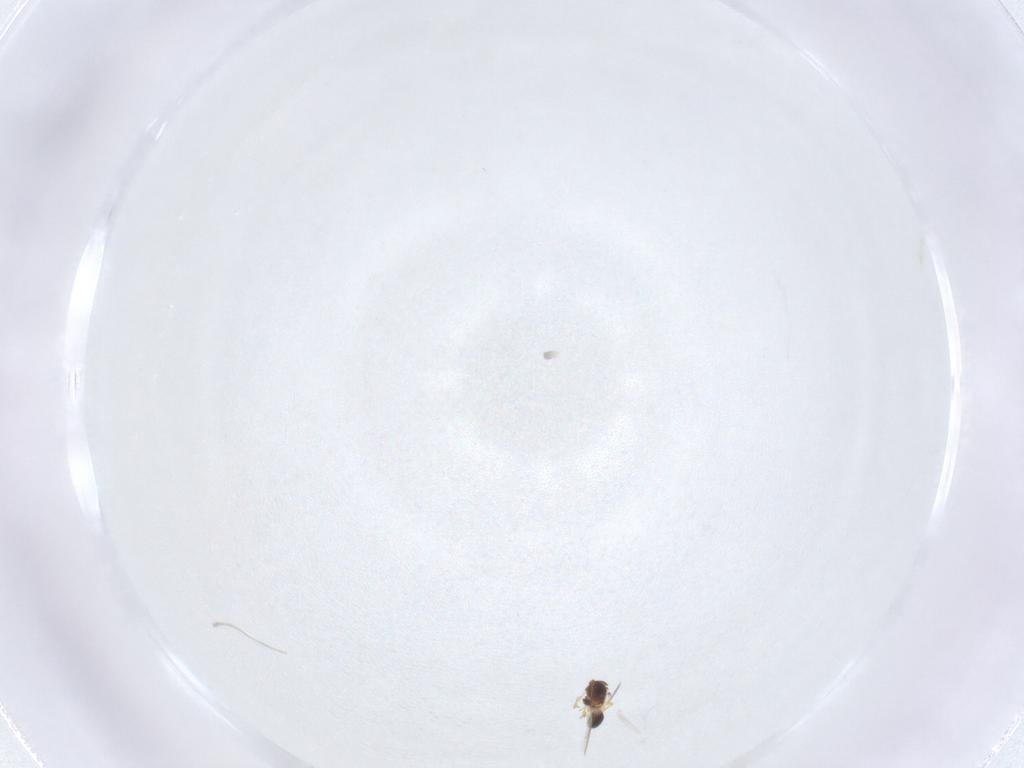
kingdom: Animalia
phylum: Arthropoda
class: Insecta
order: Hymenoptera
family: Platygastridae
